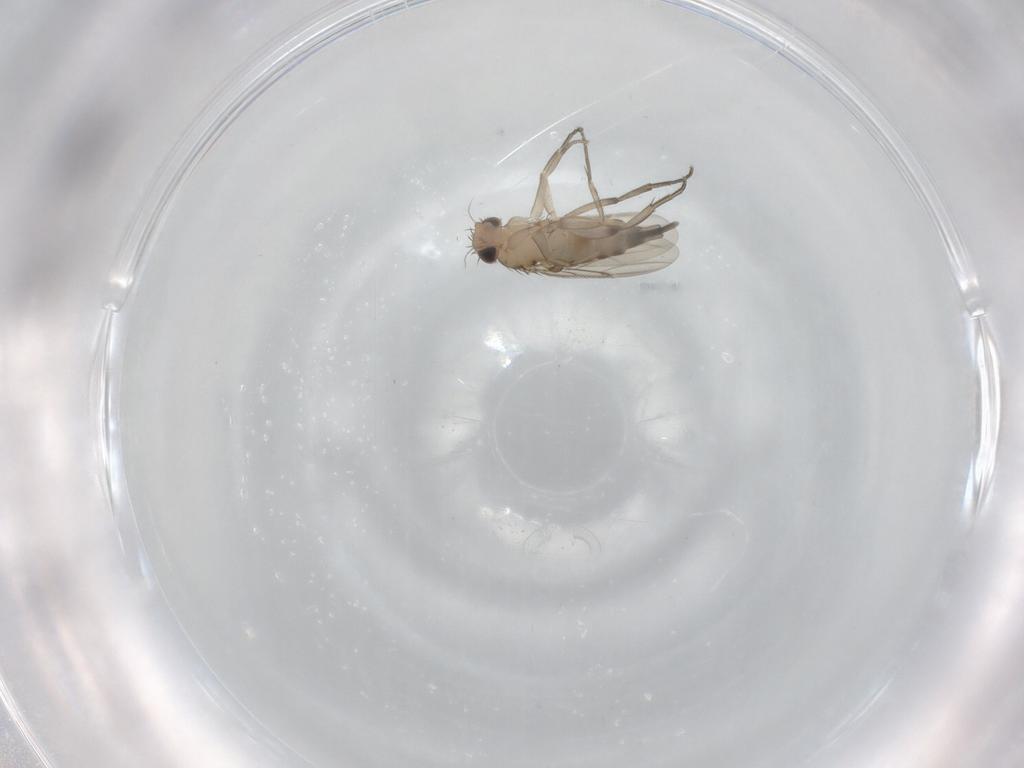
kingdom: Animalia
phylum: Arthropoda
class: Insecta
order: Diptera
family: Phoridae
